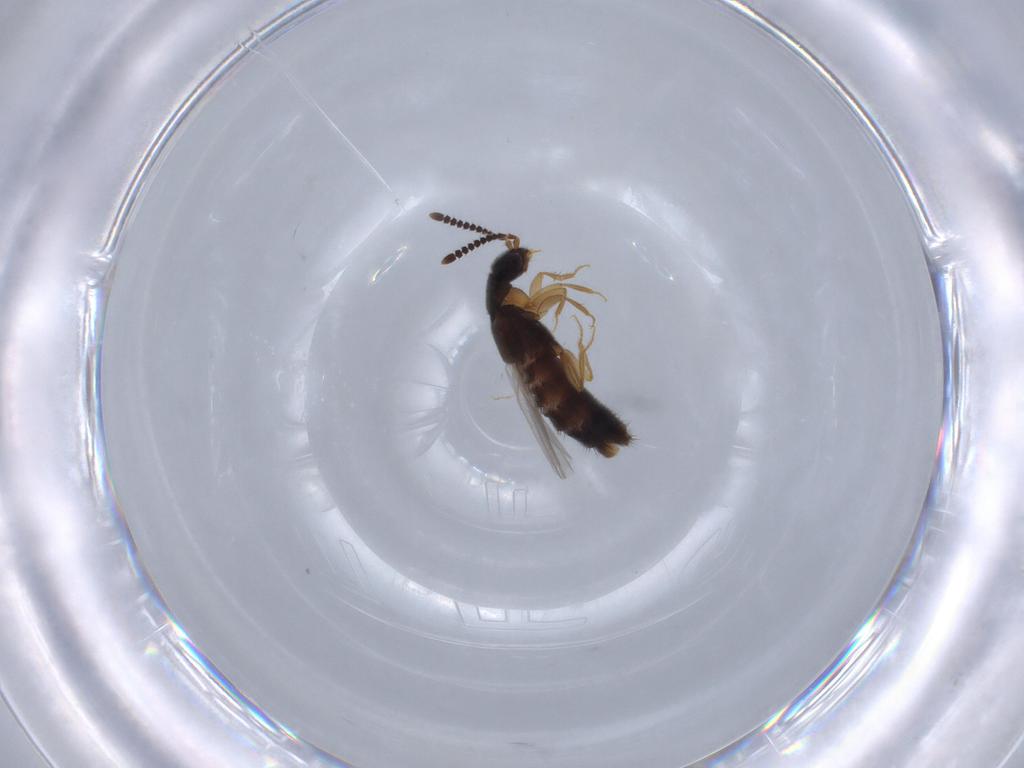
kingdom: Animalia
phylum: Arthropoda
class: Insecta
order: Coleoptera
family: Staphylinidae
